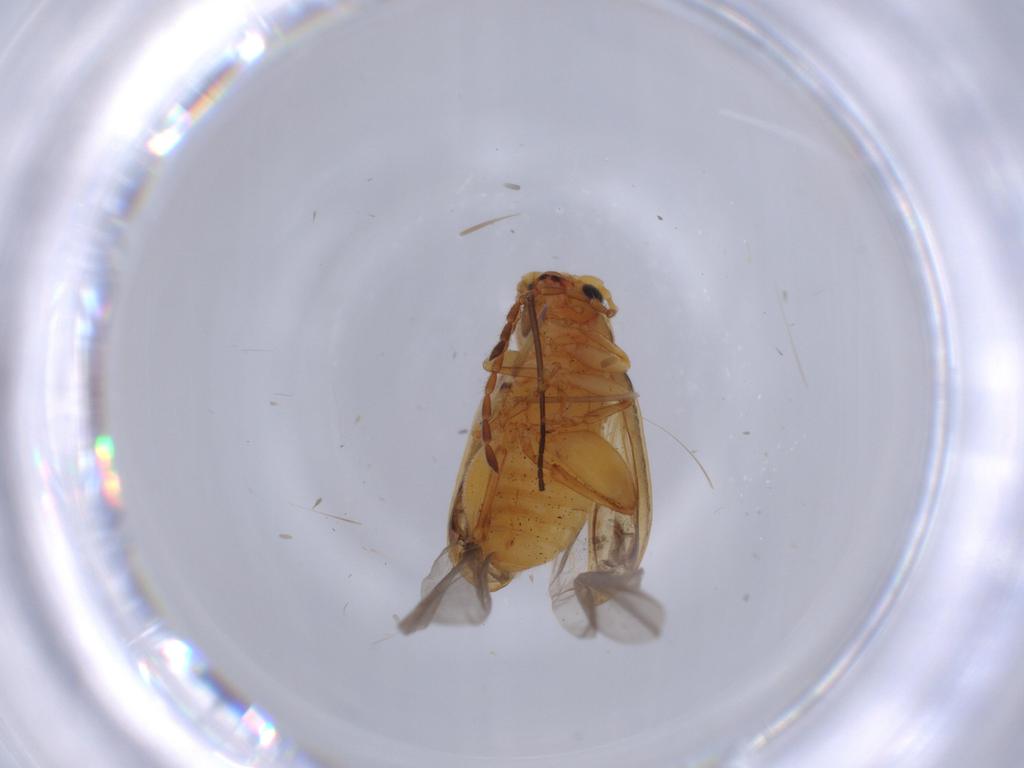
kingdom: Animalia
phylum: Arthropoda
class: Insecta
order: Coleoptera
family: Chrysomelidae
